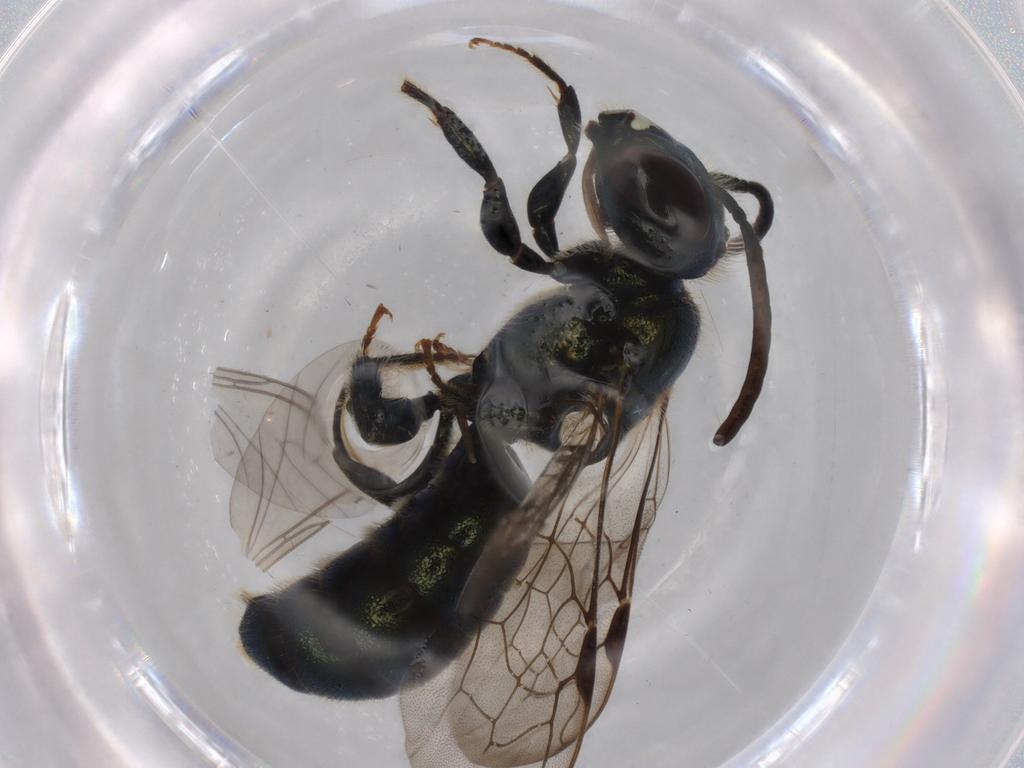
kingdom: Animalia
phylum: Arthropoda
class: Insecta
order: Hymenoptera
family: Apidae
